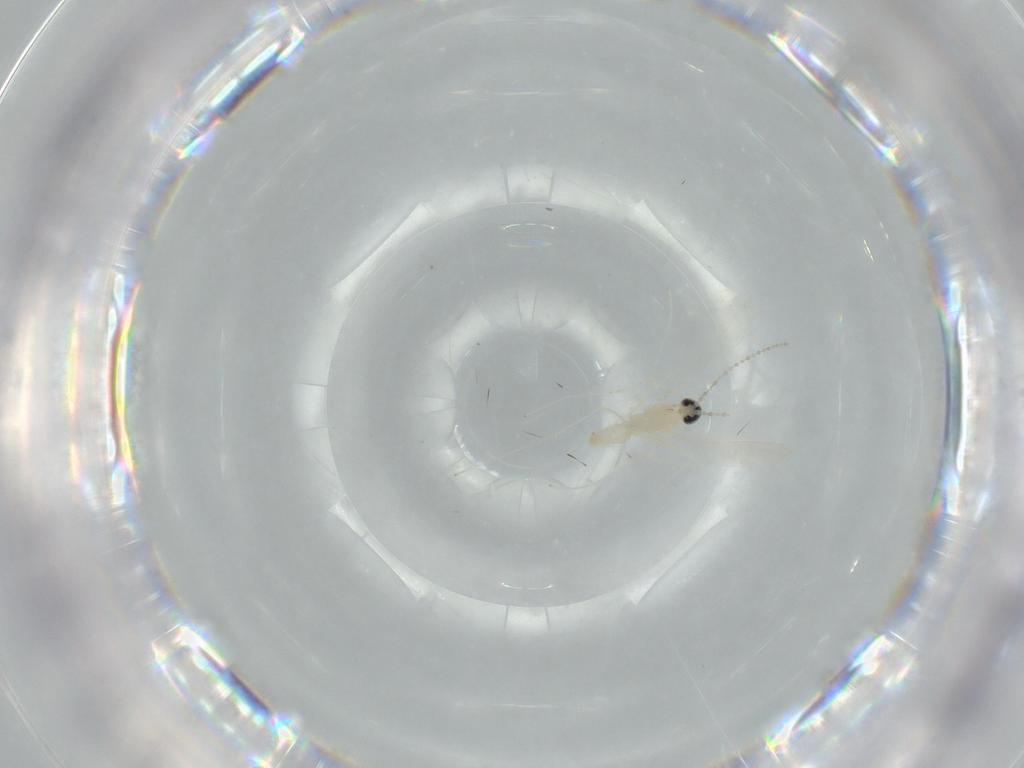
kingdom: Animalia
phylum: Arthropoda
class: Insecta
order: Diptera
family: Cecidomyiidae
